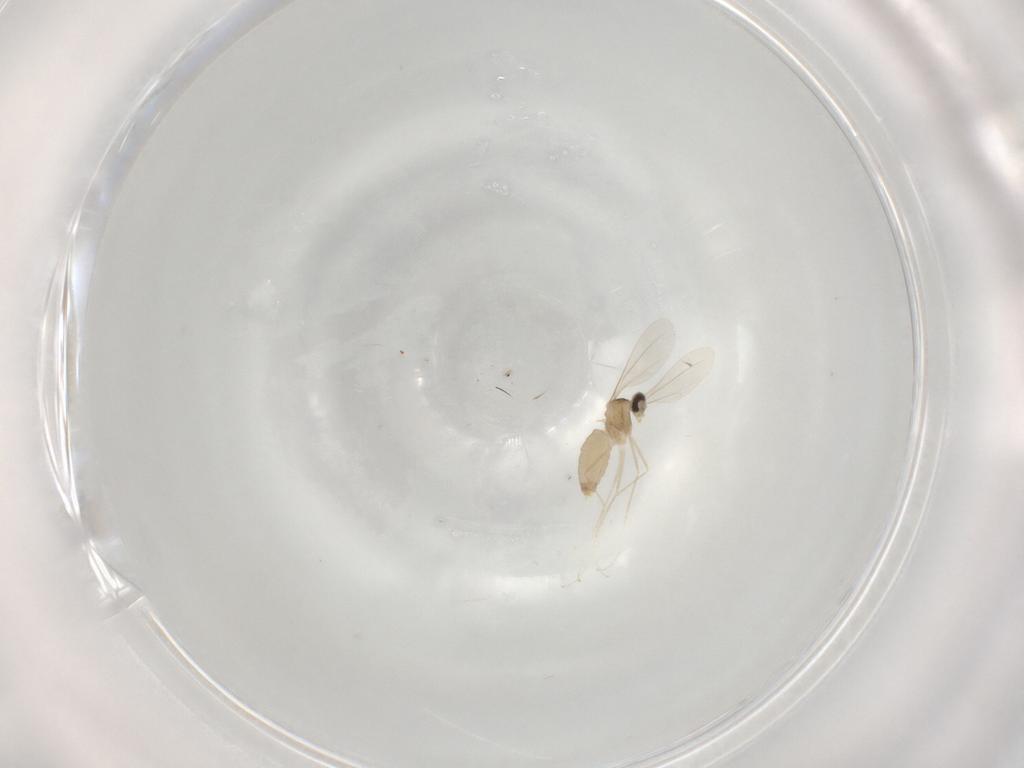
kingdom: Animalia
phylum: Arthropoda
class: Insecta
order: Diptera
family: Cecidomyiidae
